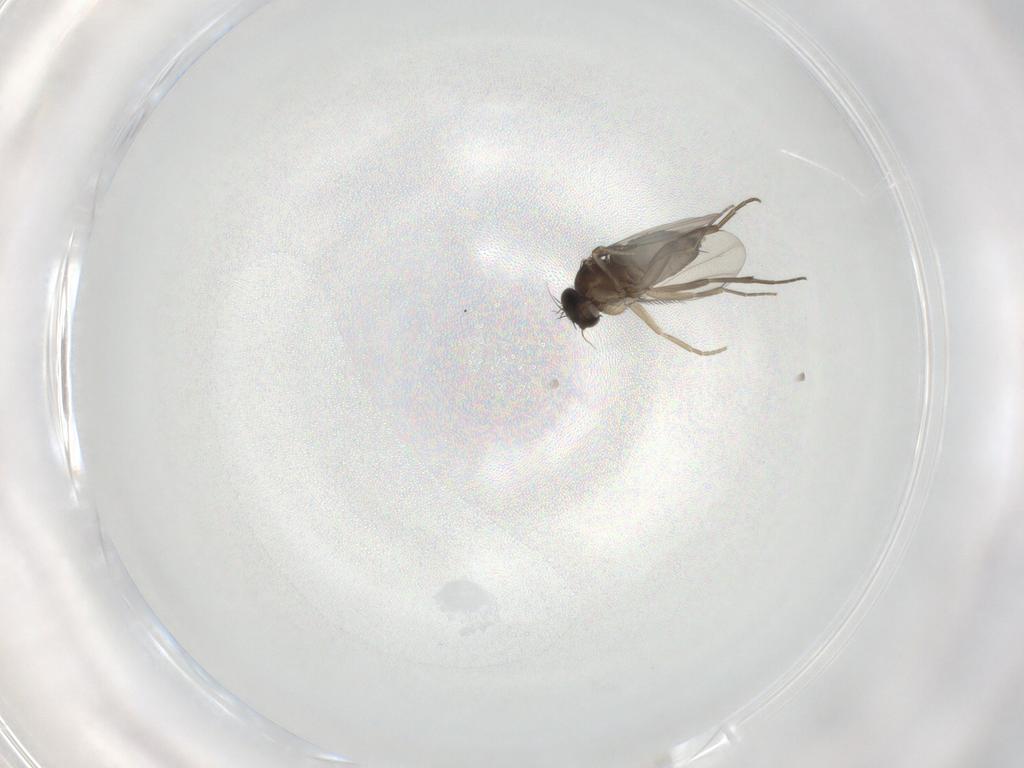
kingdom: Animalia
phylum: Arthropoda
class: Insecta
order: Diptera
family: Phoridae
